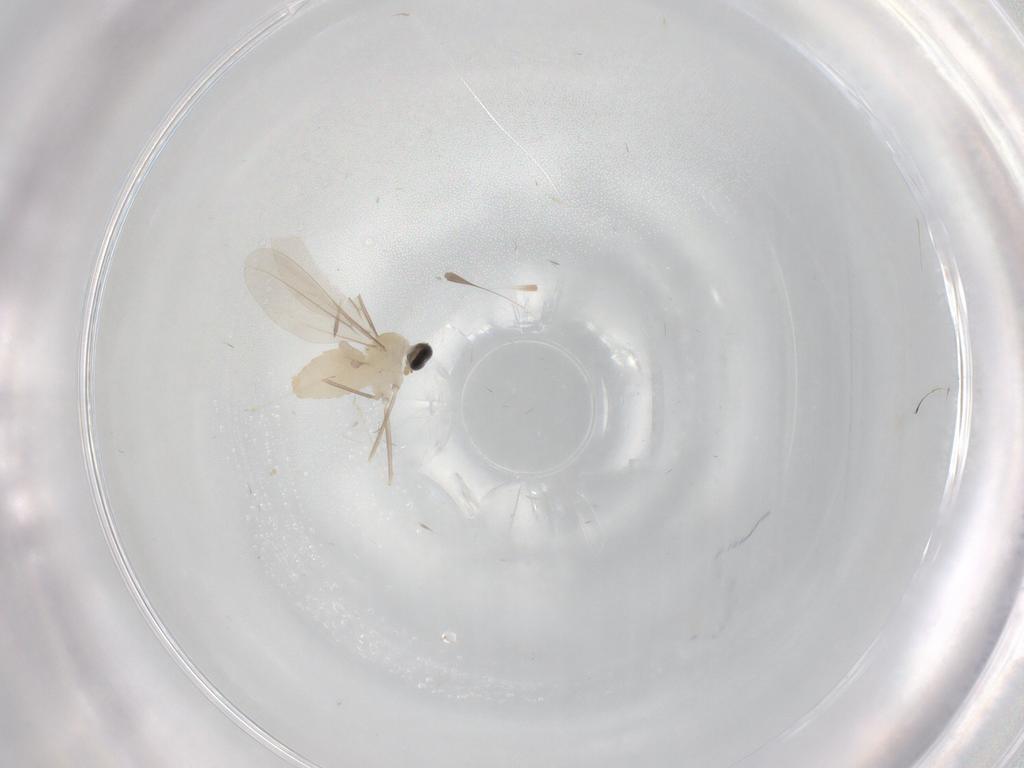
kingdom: Animalia
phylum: Arthropoda
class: Insecta
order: Diptera
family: Cecidomyiidae
